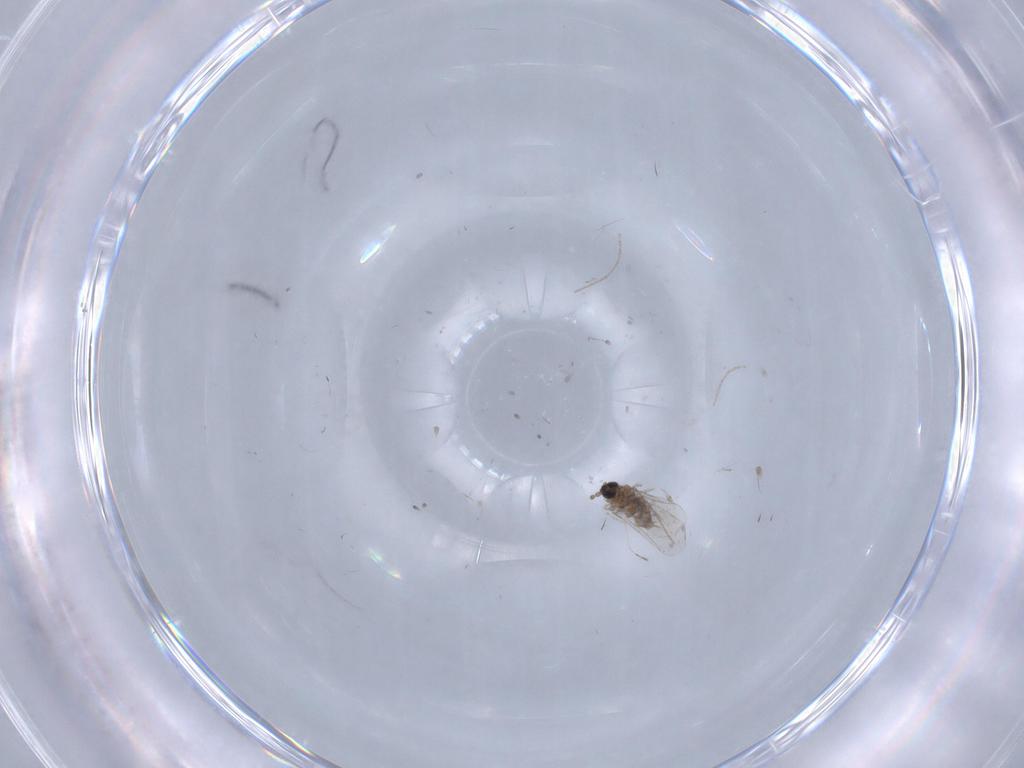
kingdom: Animalia
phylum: Arthropoda
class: Insecta
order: Diptera
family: Chironomidae
